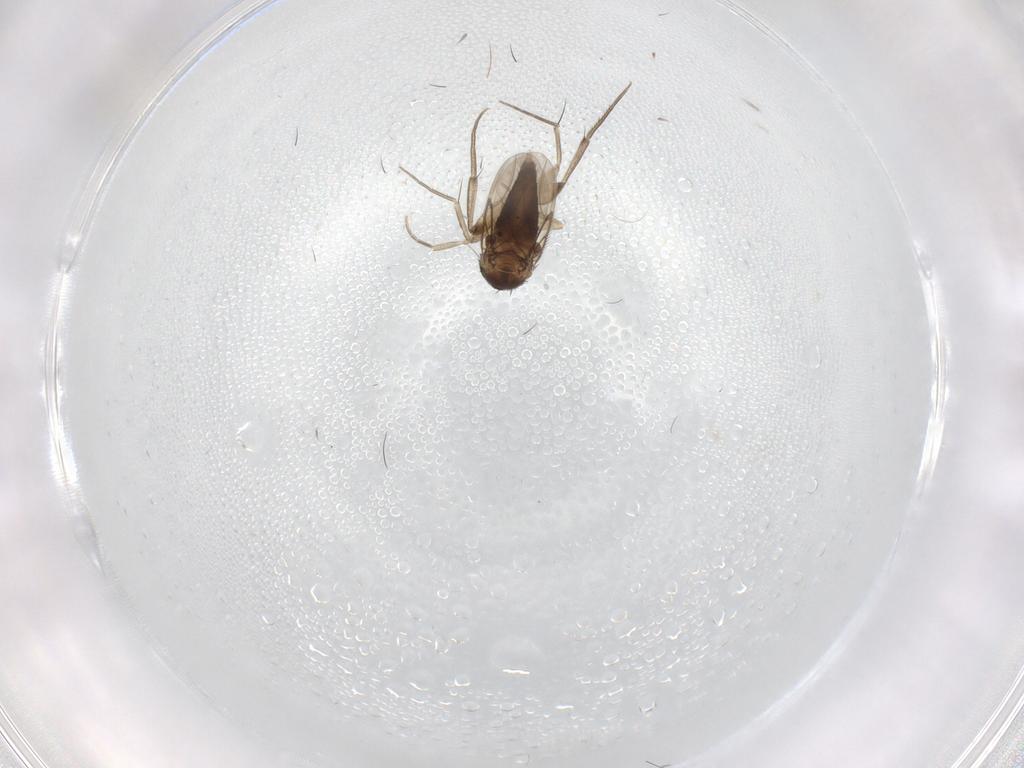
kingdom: Animalia
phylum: Arthropoda
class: Insecta
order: Diptera
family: Phoridae
